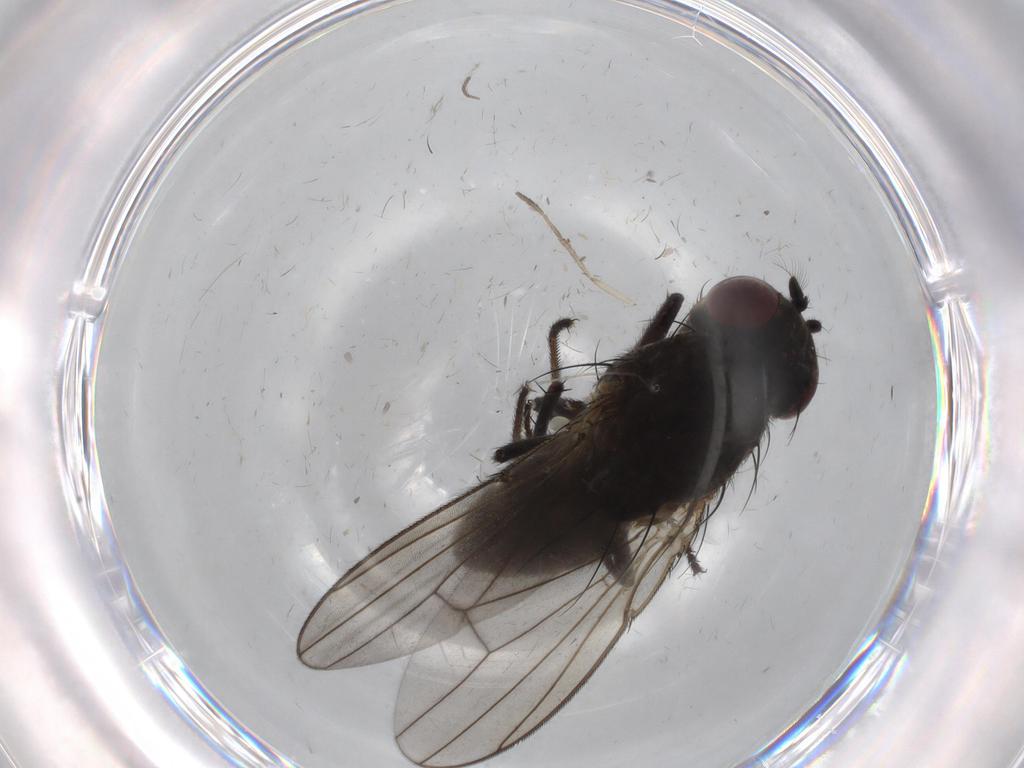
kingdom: Animalia
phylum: Arthropoda
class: Insecta
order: Diptera
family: Ephydridae
